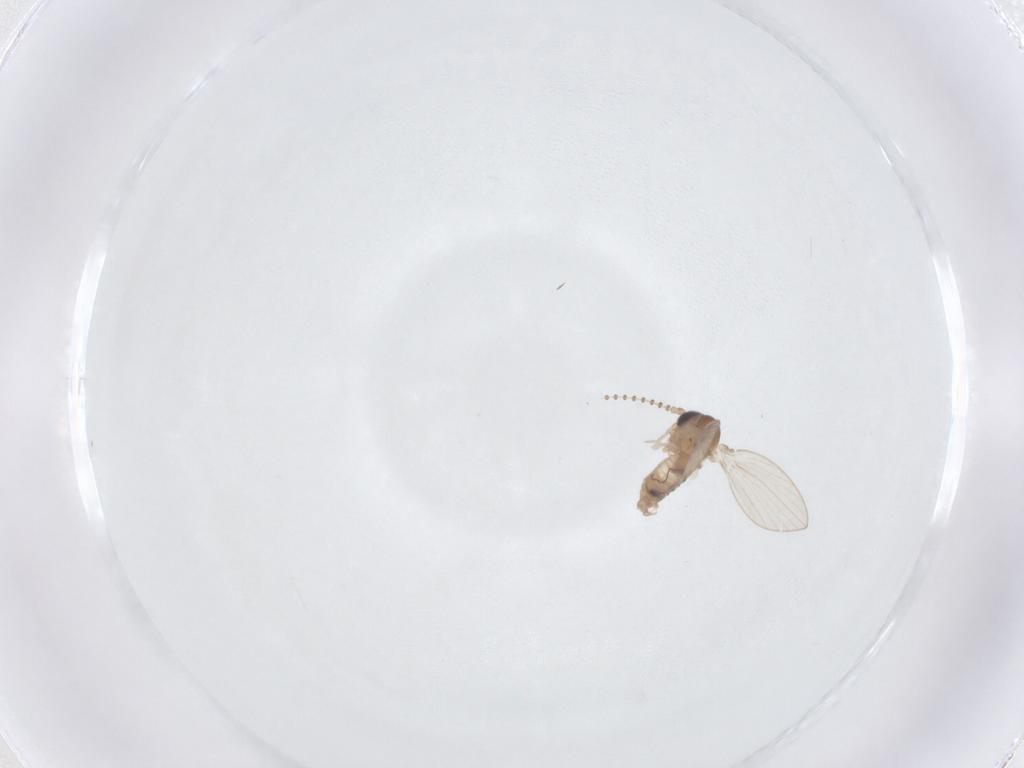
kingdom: Animalia
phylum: Arthropoda
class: Insecta
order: Diptera
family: Psychodidae
